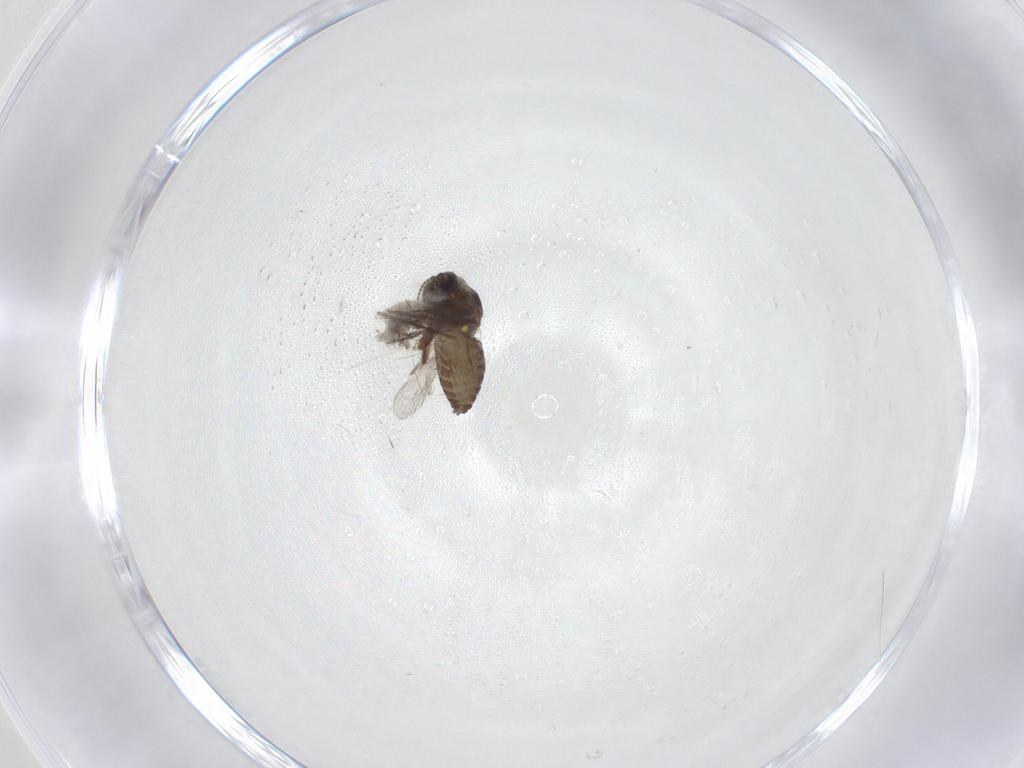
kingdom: Animalia
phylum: Arthropoda
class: Insecta
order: Diptera
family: Ceratopogonidae
